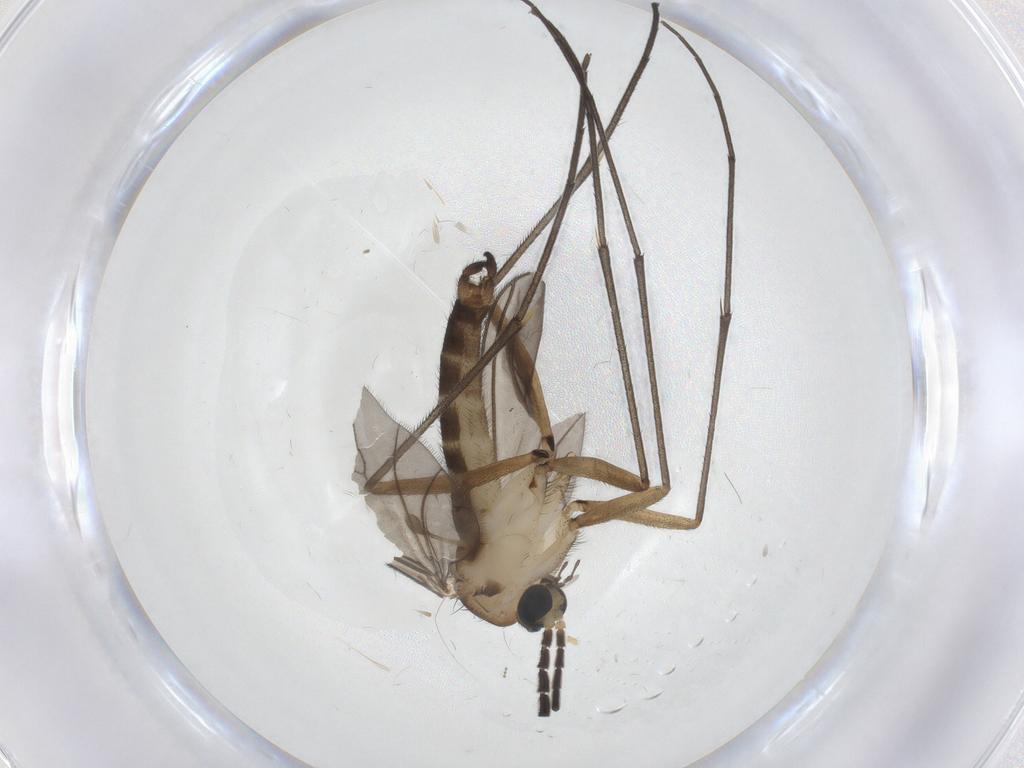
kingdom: Animalia
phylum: Arthropoda
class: Insecta
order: Diptera
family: Sciaridae
